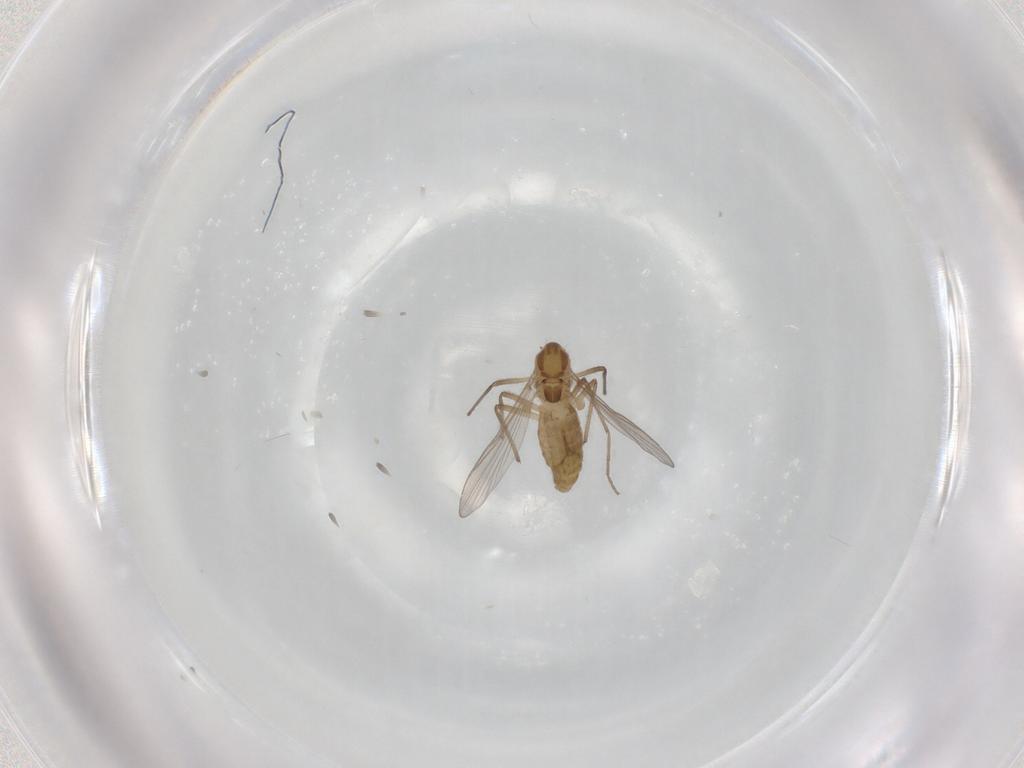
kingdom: Animalia
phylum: Arthropoda
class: Insecta
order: Diptera
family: Chironomidae
